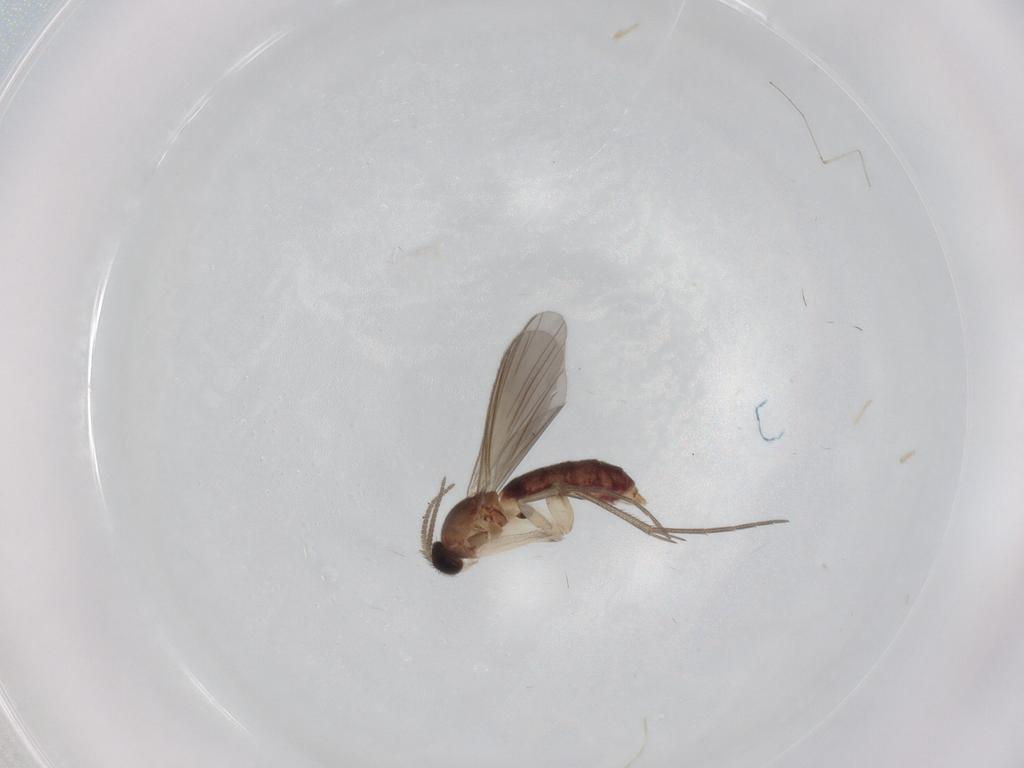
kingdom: Animalia
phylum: Arthropoda
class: Insecta
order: Diptera
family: Mycetophilidae
